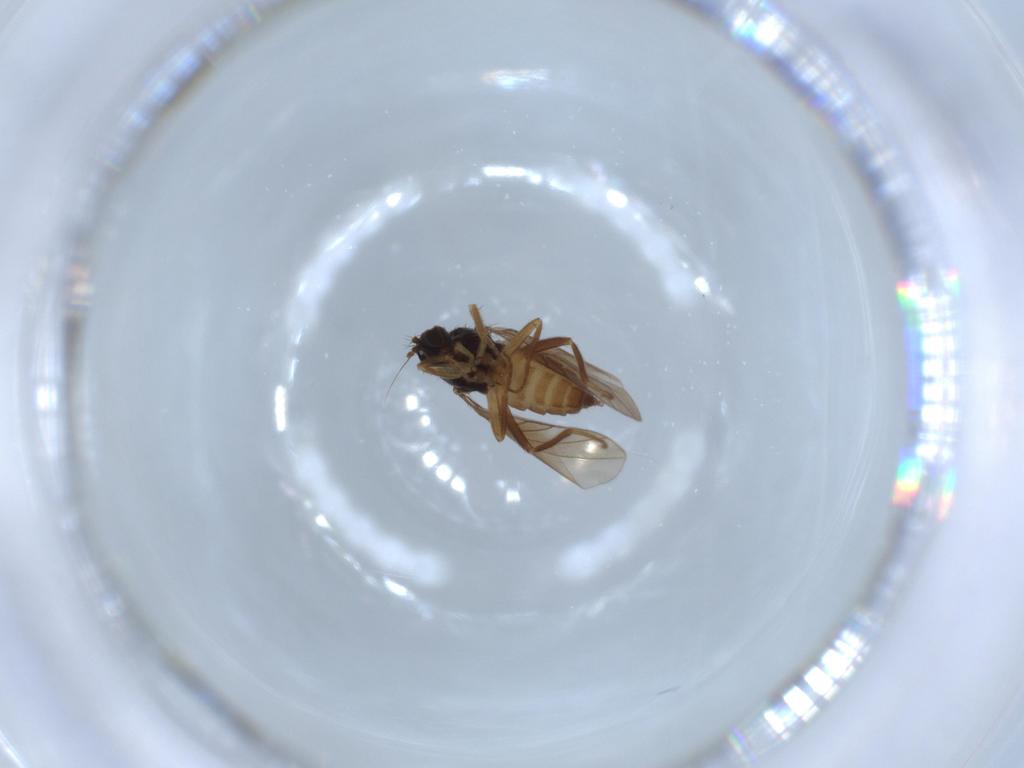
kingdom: Animalia
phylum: Arthropoda
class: Insecta
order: Diptera
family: Hybotidae
